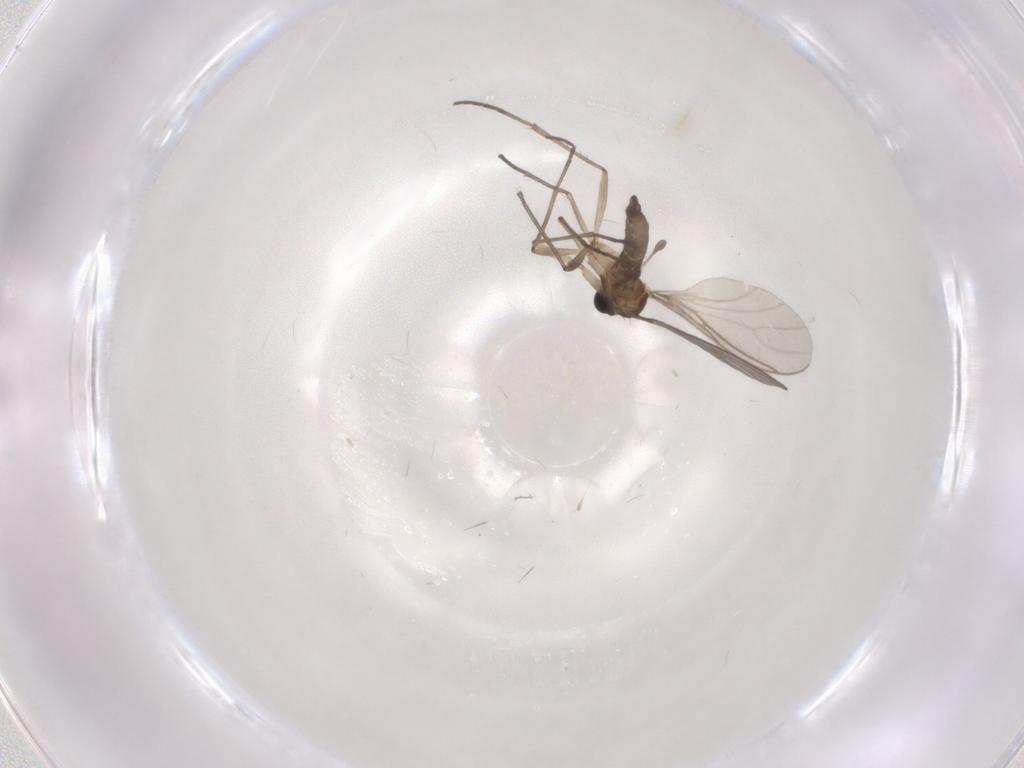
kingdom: Animalia
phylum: Arthropoda
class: Insecta
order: Diptera
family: Sciaridae
